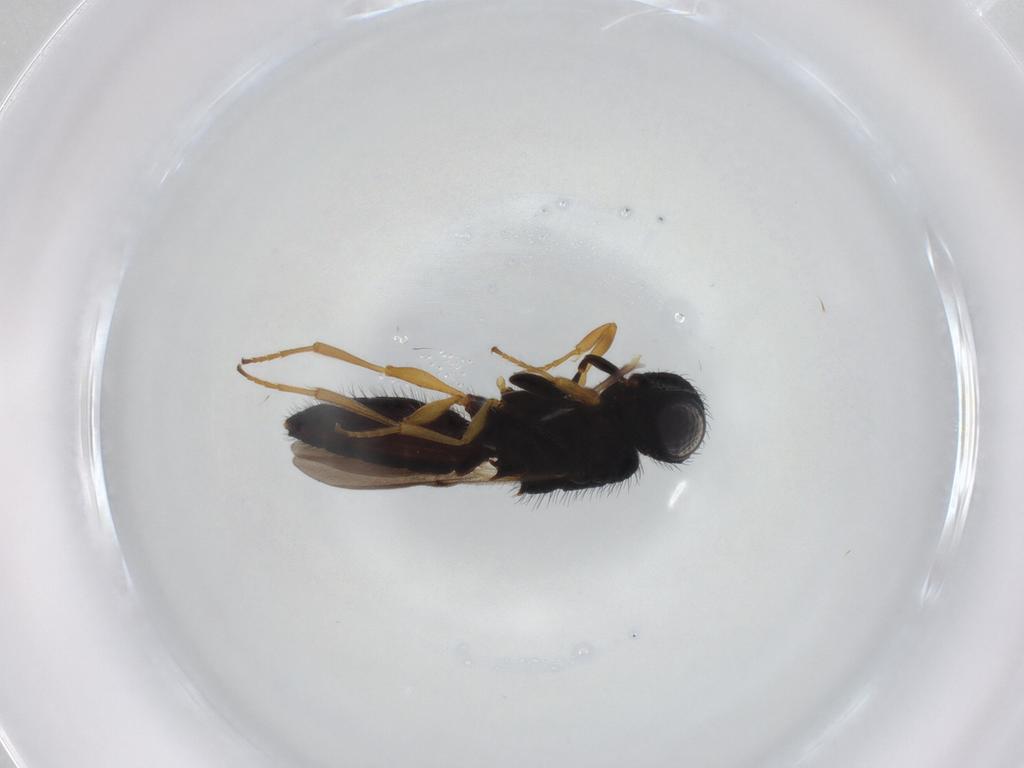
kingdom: Animalia
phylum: Arthropoda
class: Insecta
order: Hymenoptera
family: Scelionidae
